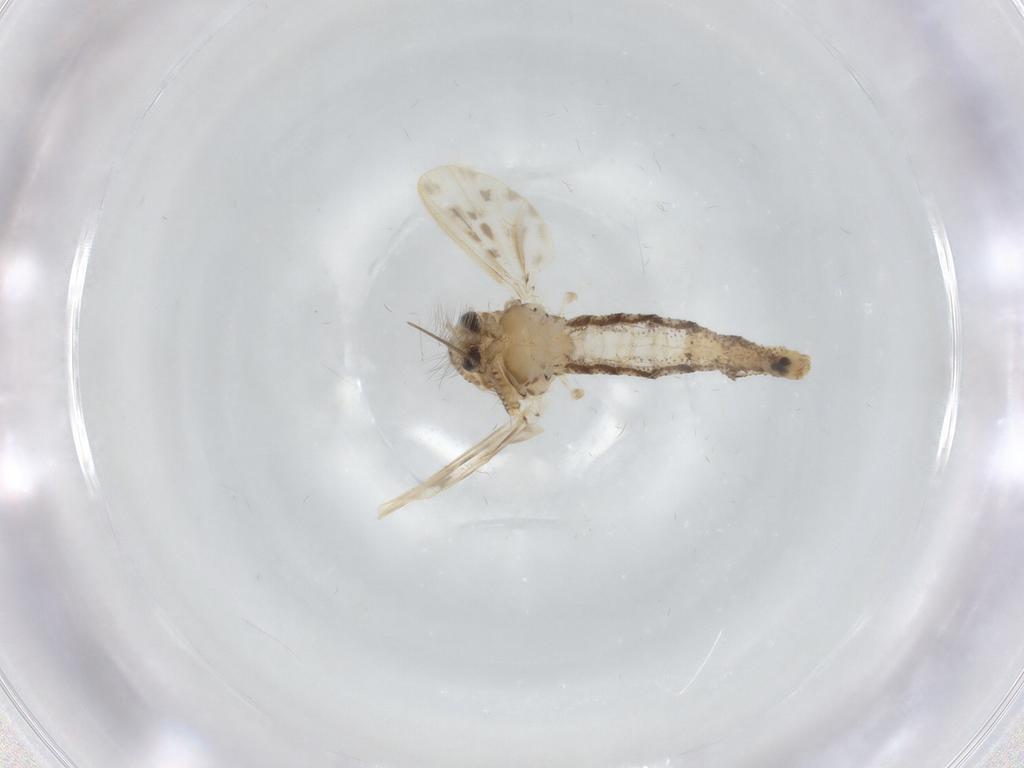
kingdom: Animalia
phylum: Arthropoda
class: Insecta
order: Diptera
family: Chaoboridae
